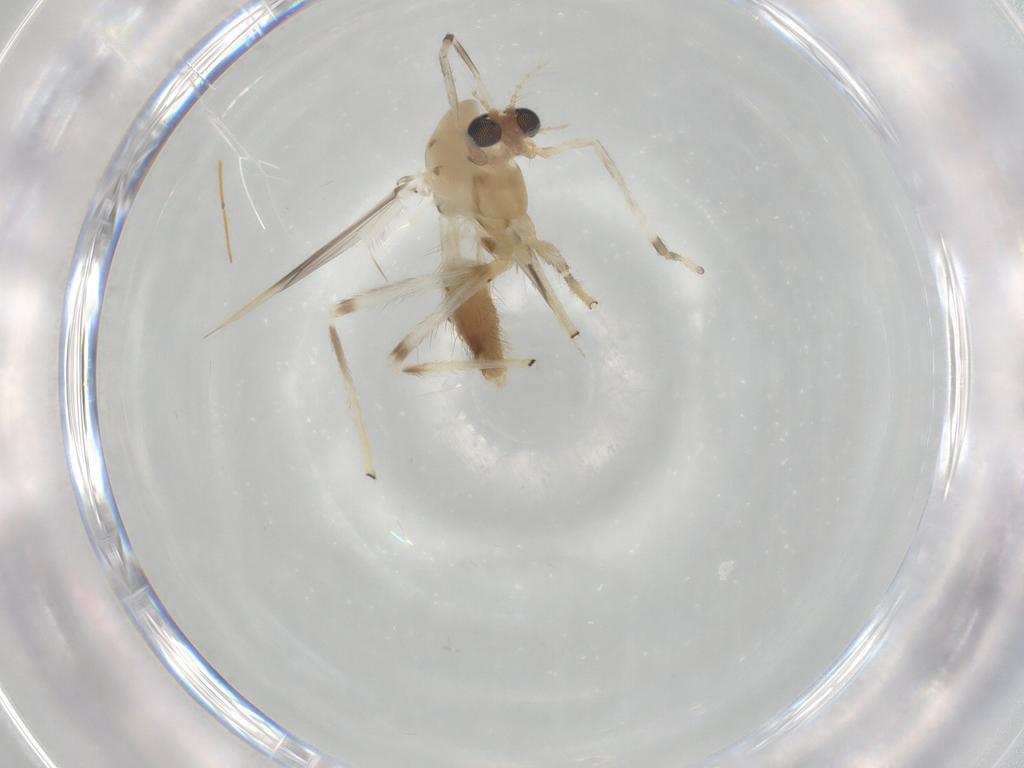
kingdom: Animalia
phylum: Arthropoda
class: Insecta
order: Diptera
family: Chironomidae
